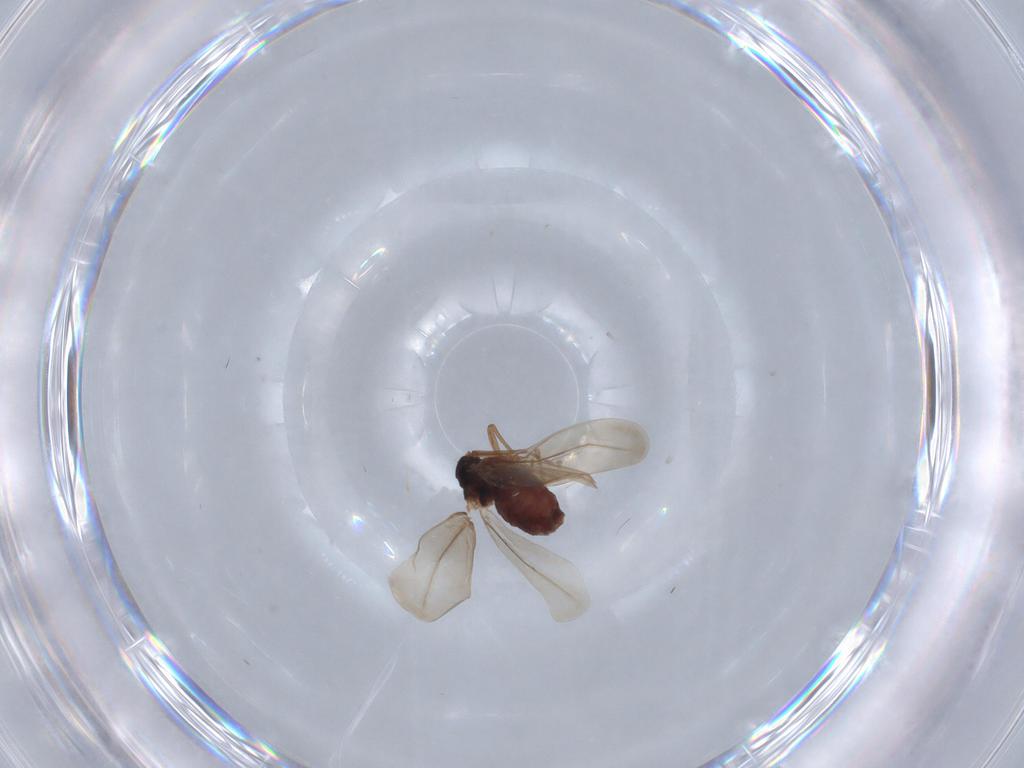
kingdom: Animalia
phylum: Arthropoda
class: Insecta
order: Hemiptera
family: Aleyrodidae
